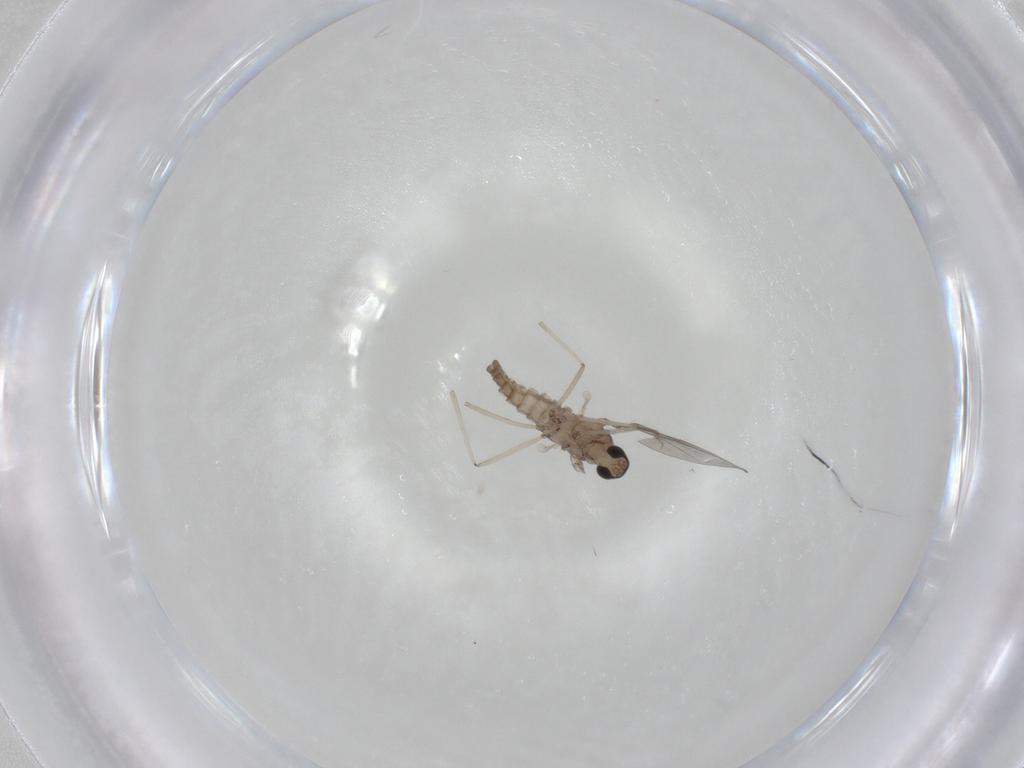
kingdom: Animalia
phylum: Arthropoda
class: Insecta
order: Diptera
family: Cecidomyiidae
